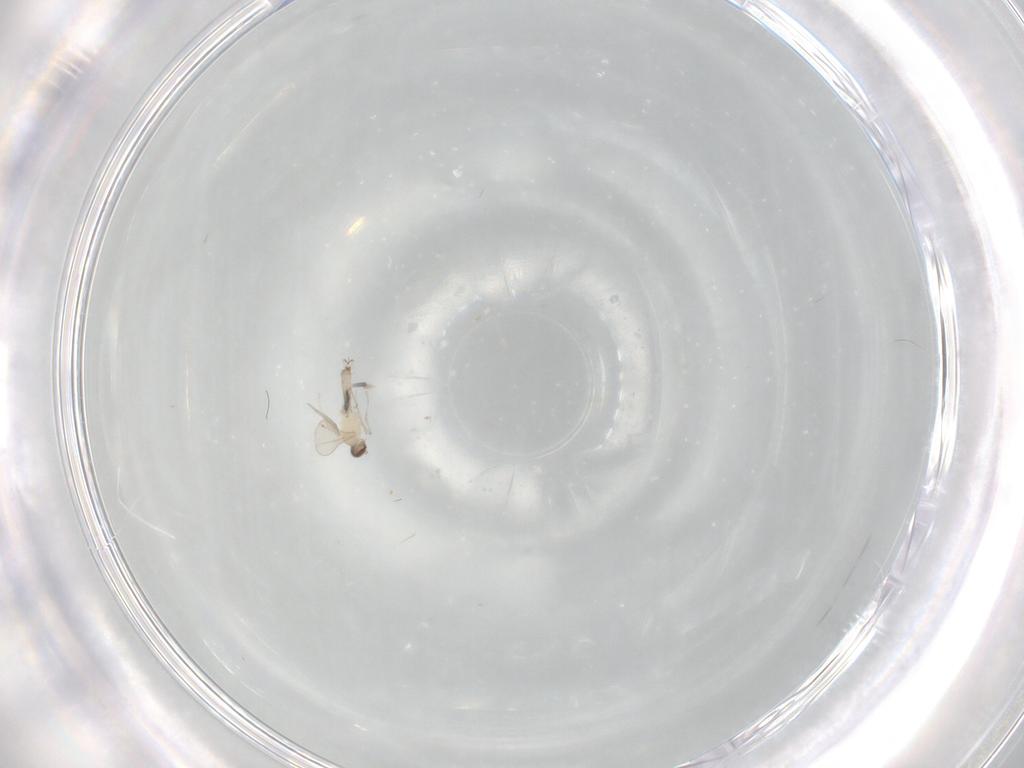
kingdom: Animalia
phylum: Arthropoda
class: Insecta
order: Diptera
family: Cecidomyiidae
